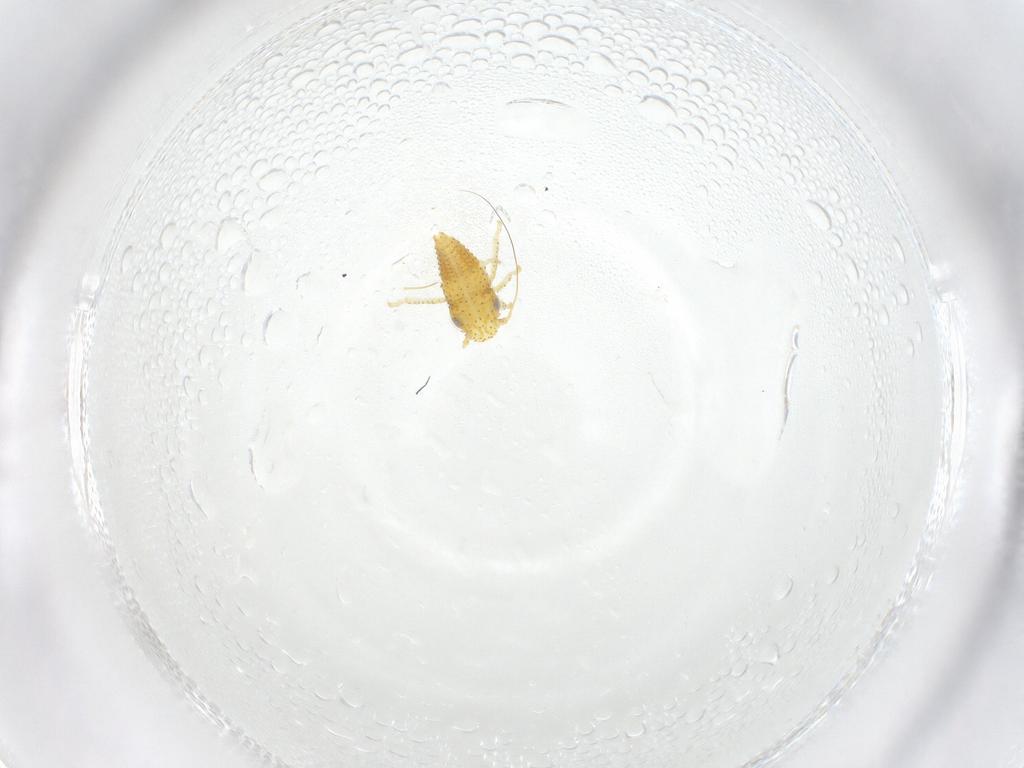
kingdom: Animalia
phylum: Arthropoda
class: Insecta
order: Hemiptera
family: Cicadellidae
